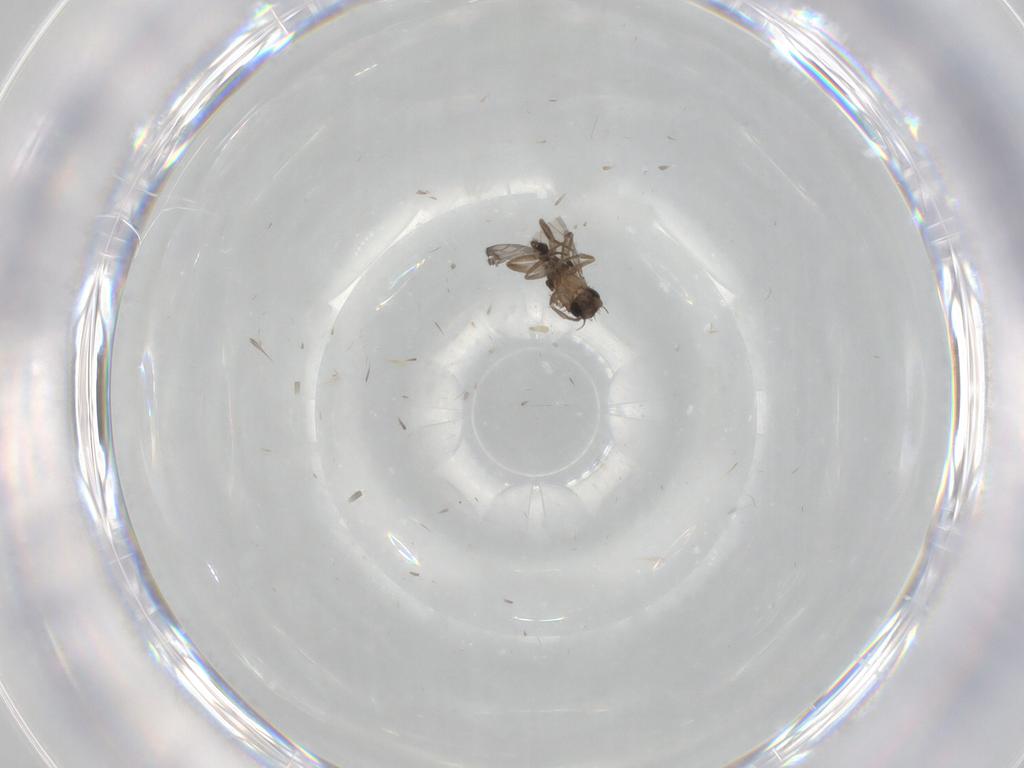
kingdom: Animalia
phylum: Arthropoda
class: Insecta
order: Diptera
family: Phoridae
